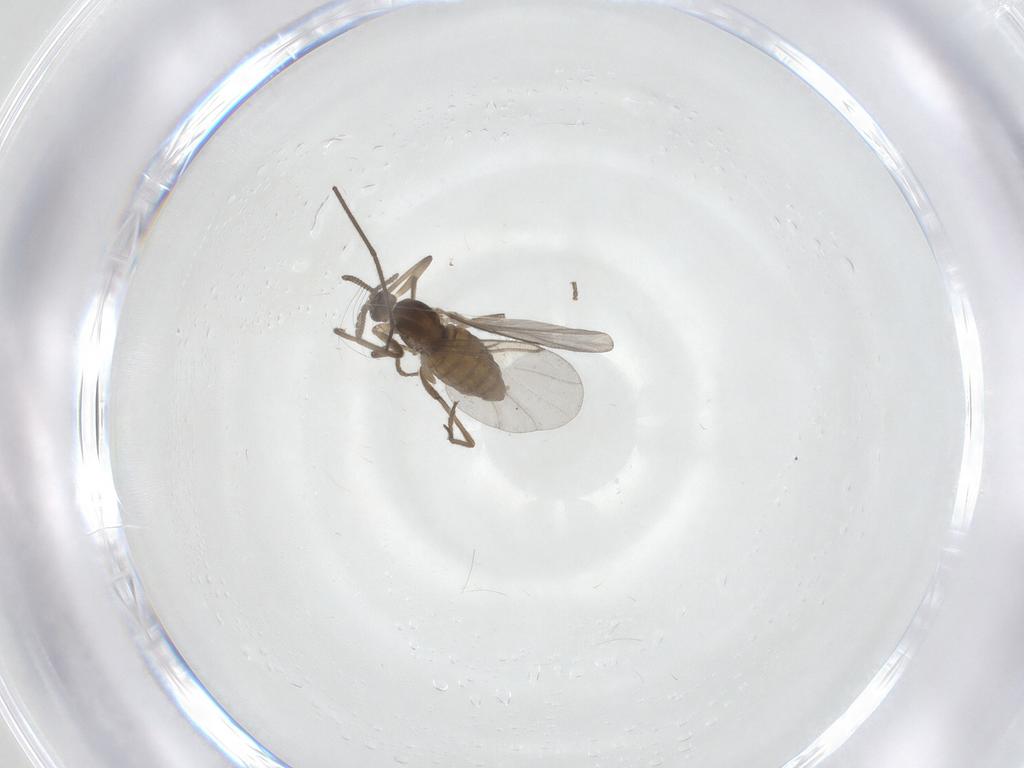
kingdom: Animalia
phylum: Arthropoda
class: Insecta
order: Diptera
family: Cecidomyiidae
